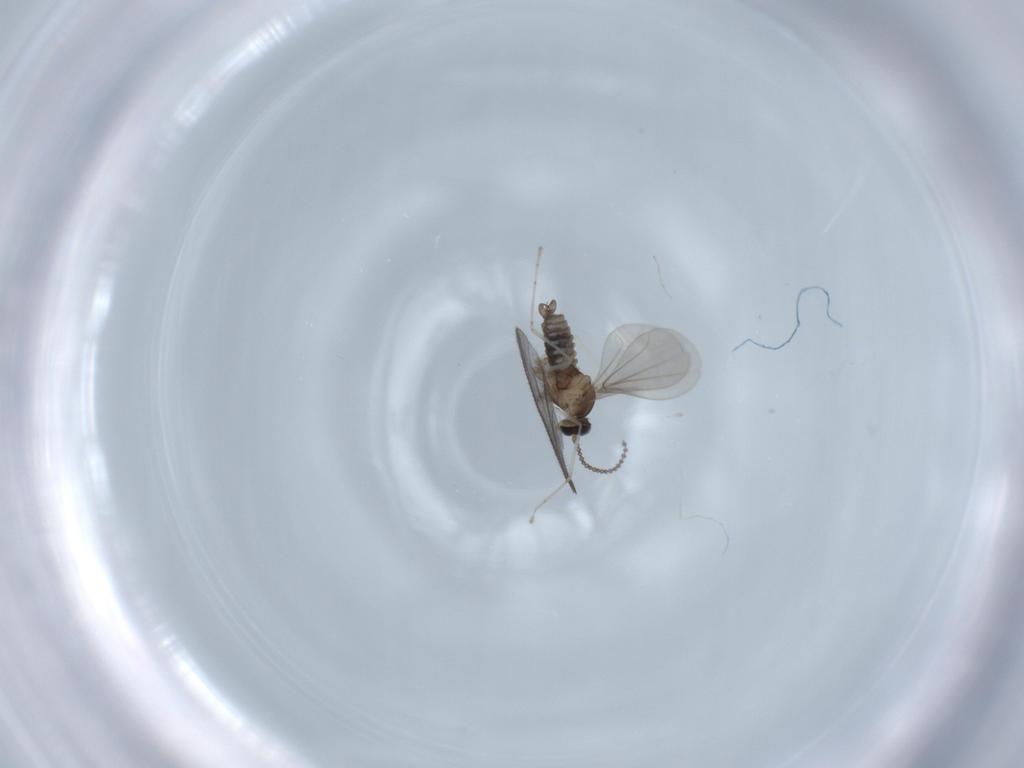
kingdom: Animalia
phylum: Arthropoda
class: Insecta
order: Diptera
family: Cecidomyiidae
